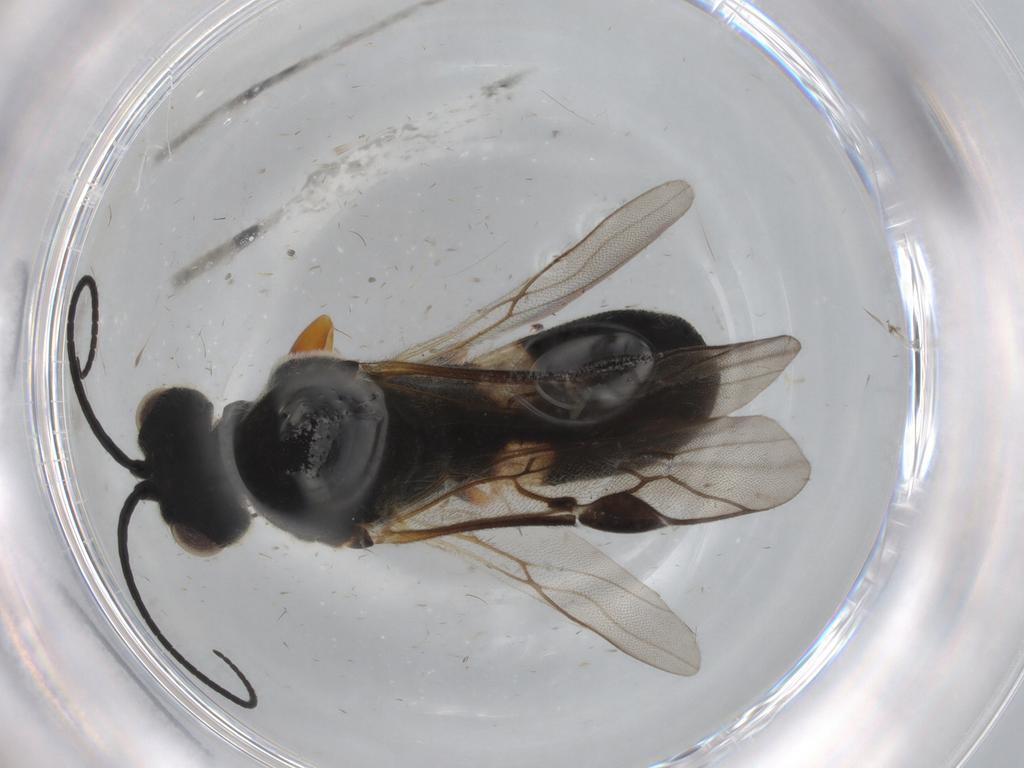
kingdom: Animalia
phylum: Arthropoda
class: Insecta
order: Hymenoptera
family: Braconidae
